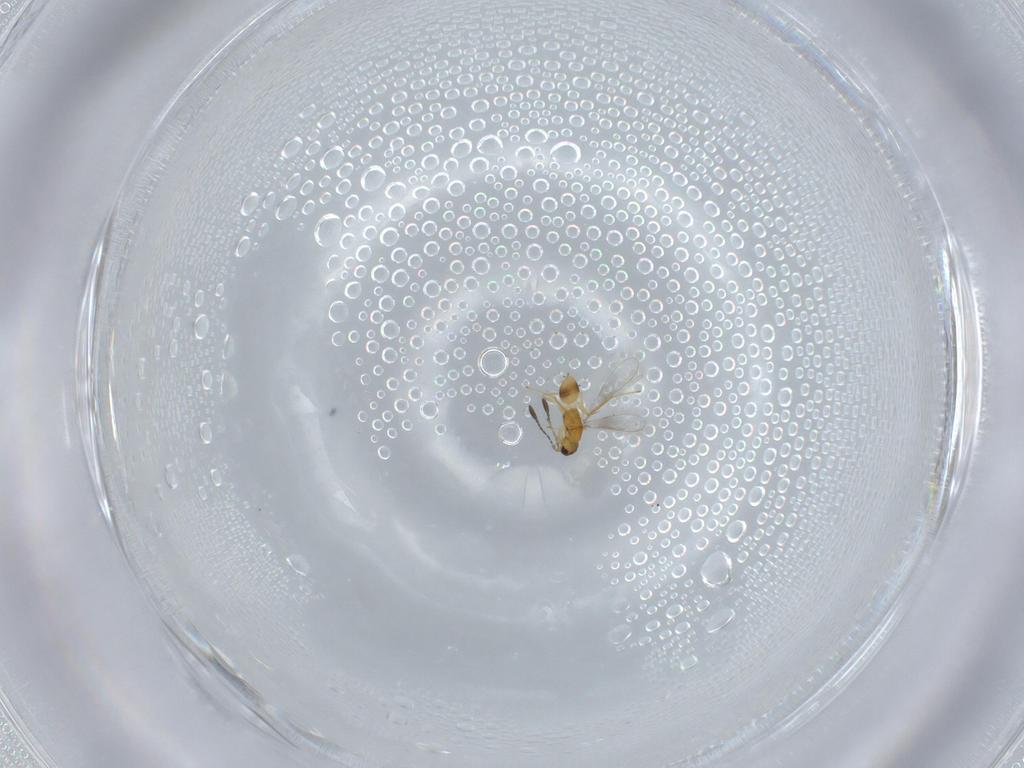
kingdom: Animalia
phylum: Arthropoda
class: Insecta
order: Hymenoptera
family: Mymaridae
